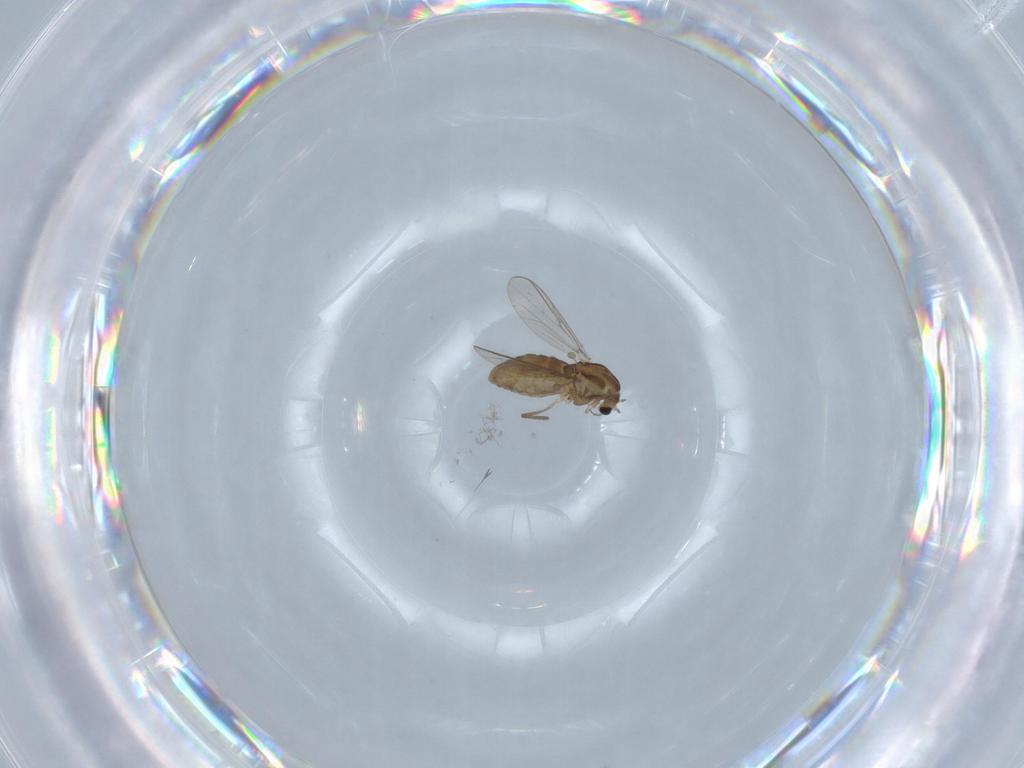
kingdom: Animalia
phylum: Arthropoda
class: Insecta
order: Diptera
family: Chironomidae
